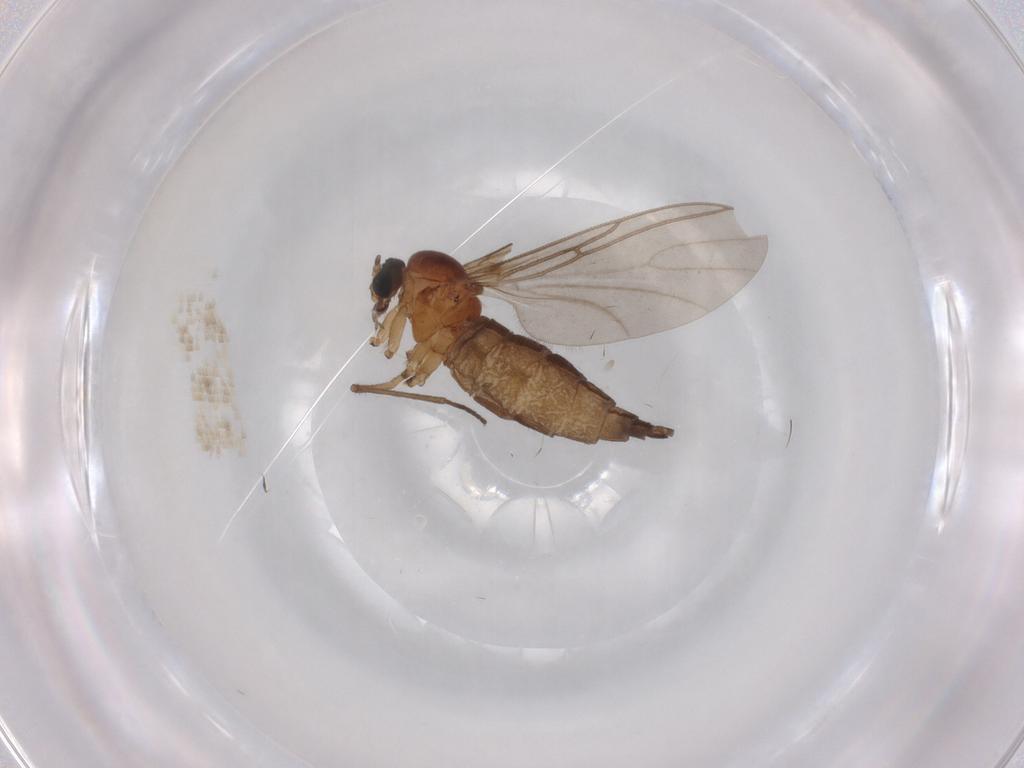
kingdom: Animalia
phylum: Arthropoda
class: Insecta
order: Diptera
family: Sciaridae
